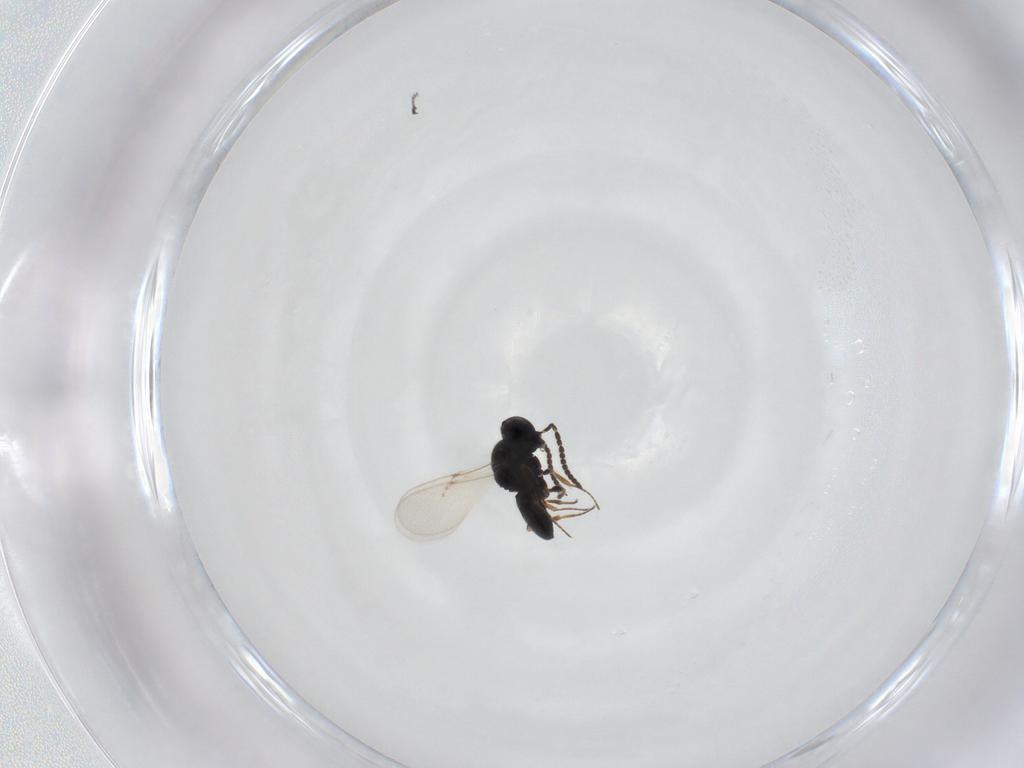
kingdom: Animalia
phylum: Arthropoda
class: Insecta
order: Hymenoptera
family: Scelionidae
